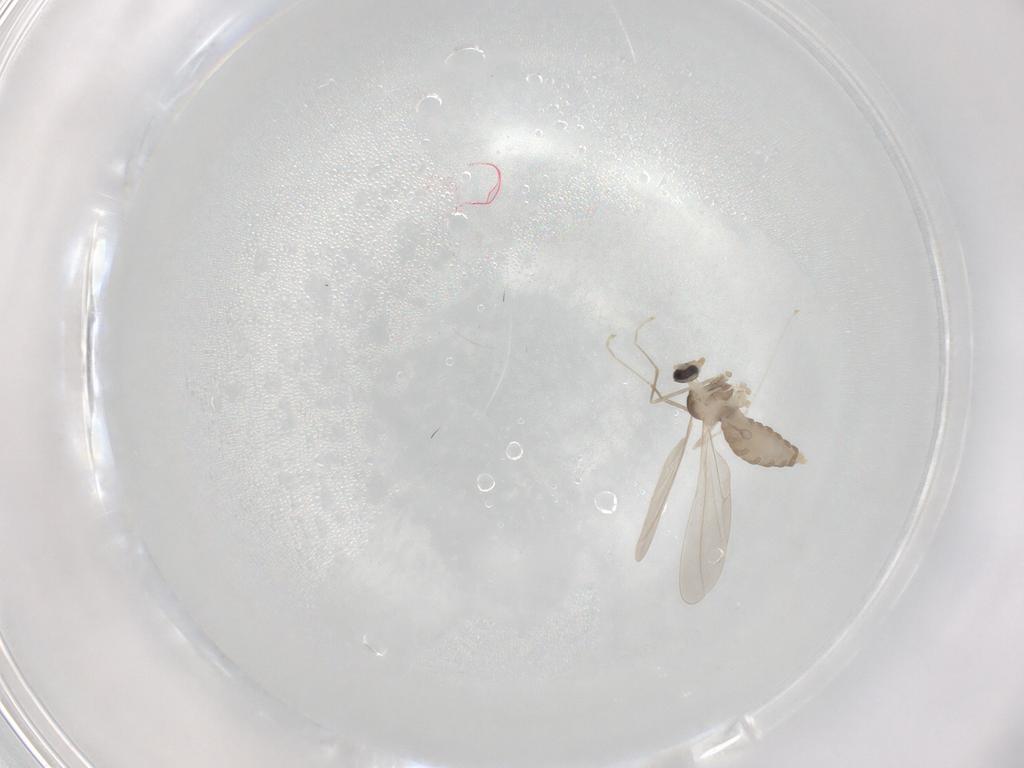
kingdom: Animalia
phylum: Arthropoda
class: Insecta
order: Diptera
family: Cecidomyiidae
